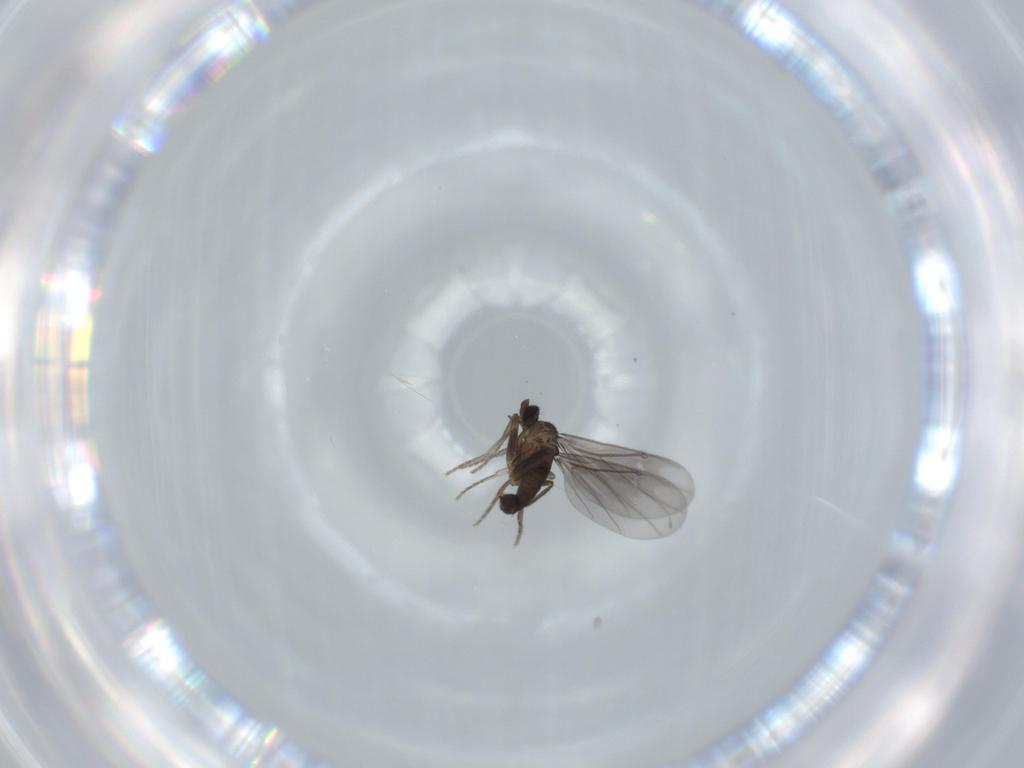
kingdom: Animalia
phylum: Arthropoda
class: Insecta
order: Diptera
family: Phoridae
